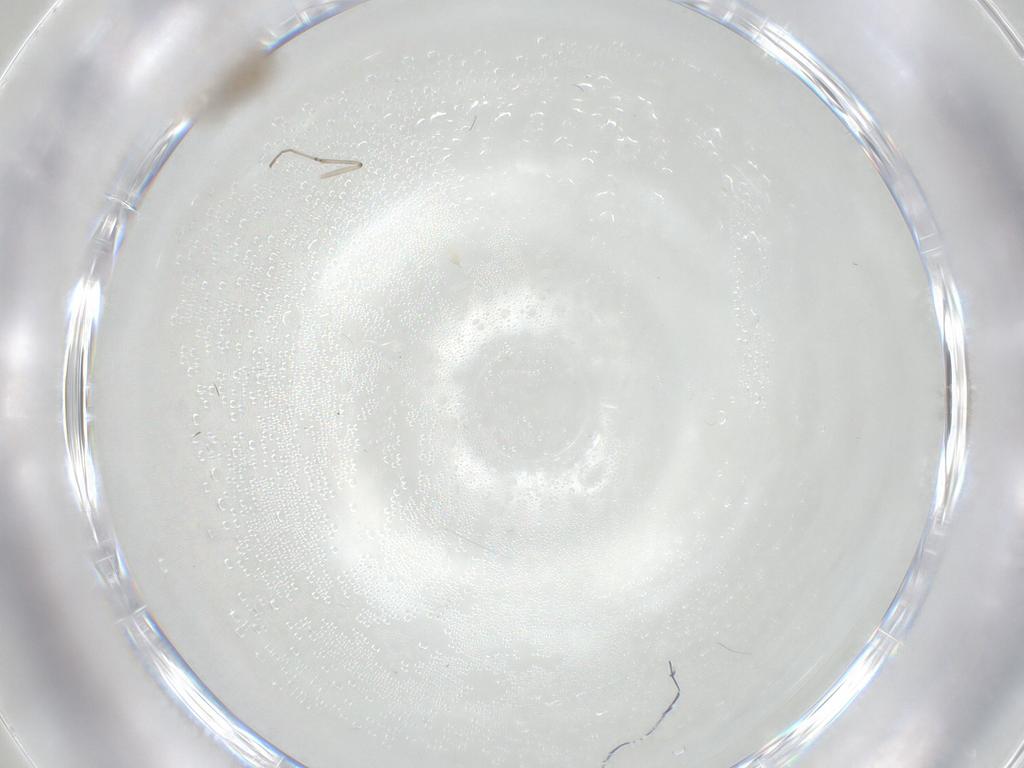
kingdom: Animalia
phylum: Arthropoda
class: Insecta
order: Diptera
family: Cecidomyiidae
